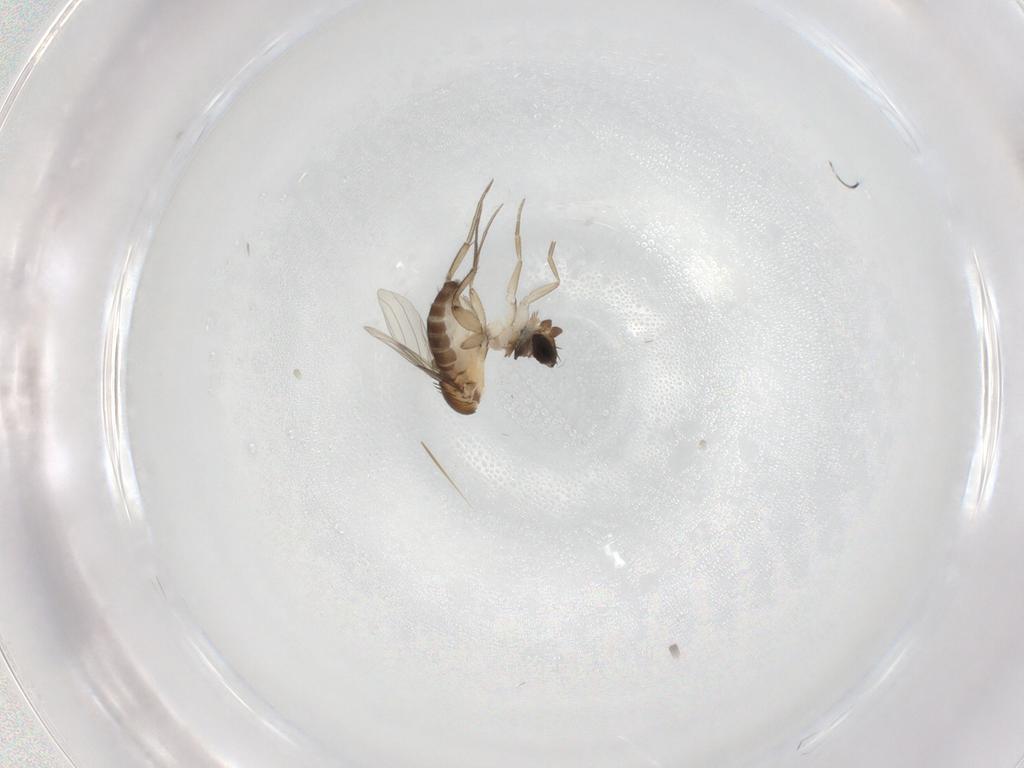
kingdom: Animalia
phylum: Arthropoda
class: Insecta
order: Diptera
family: Phoridae
